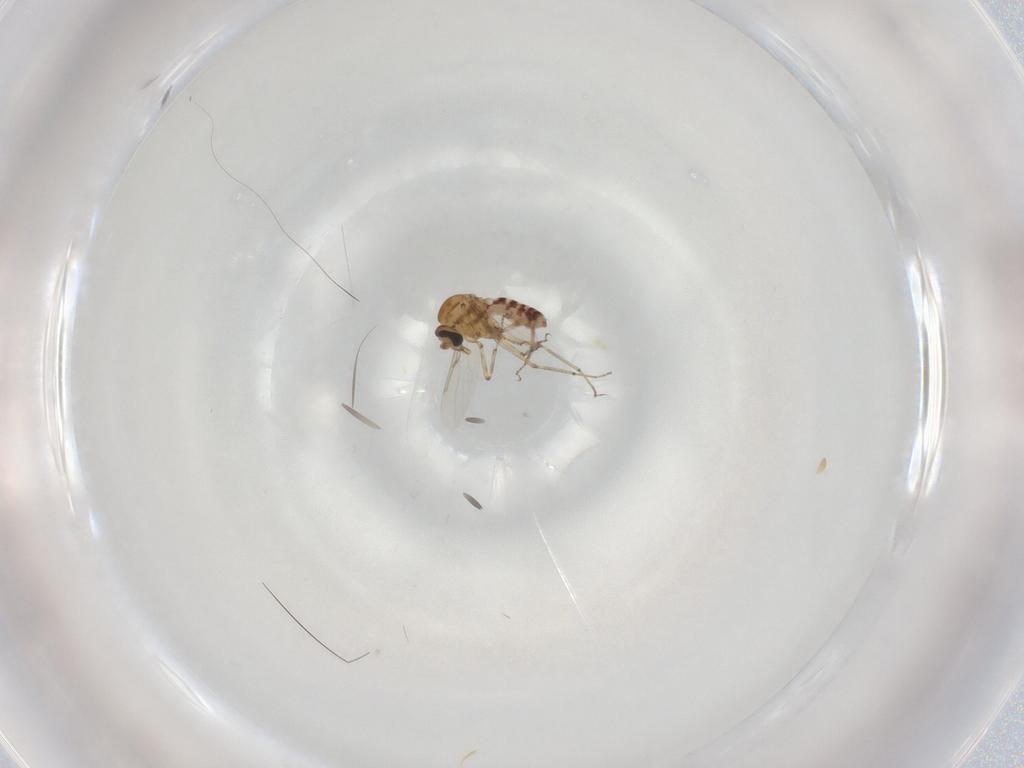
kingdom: Animalia
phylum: Arthropoda
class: Insecta
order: Diptera
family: Ceratopogonidae
